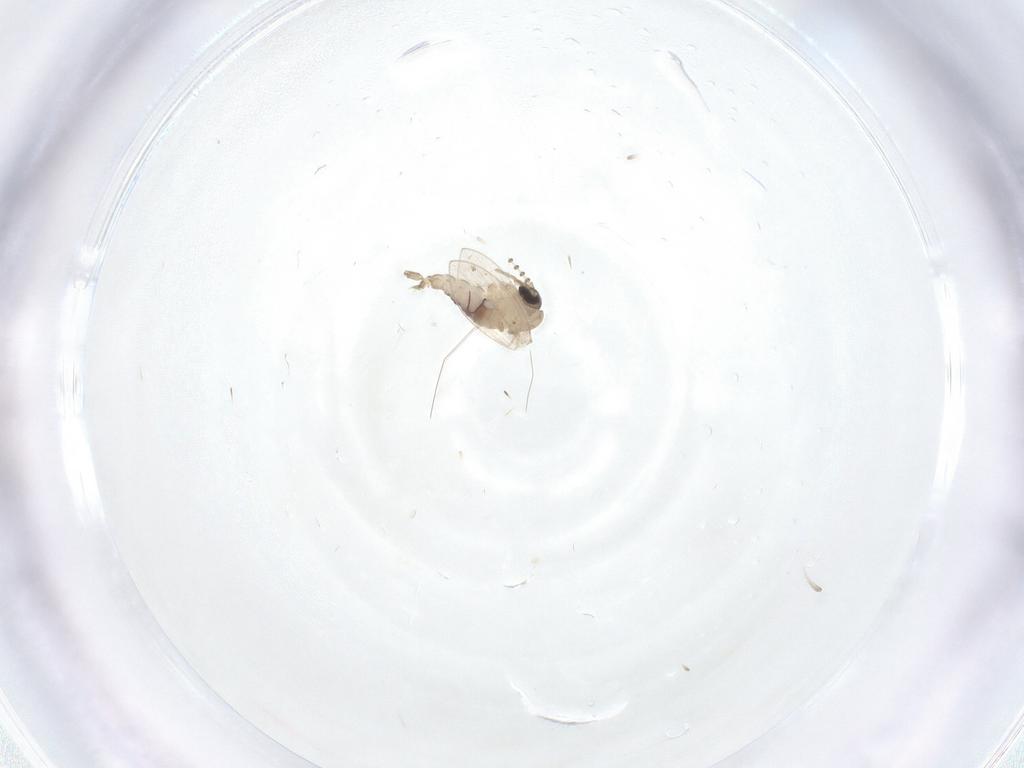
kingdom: Animalia
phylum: Arthropoda
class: Insecta
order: Diptera
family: Psychodidae
